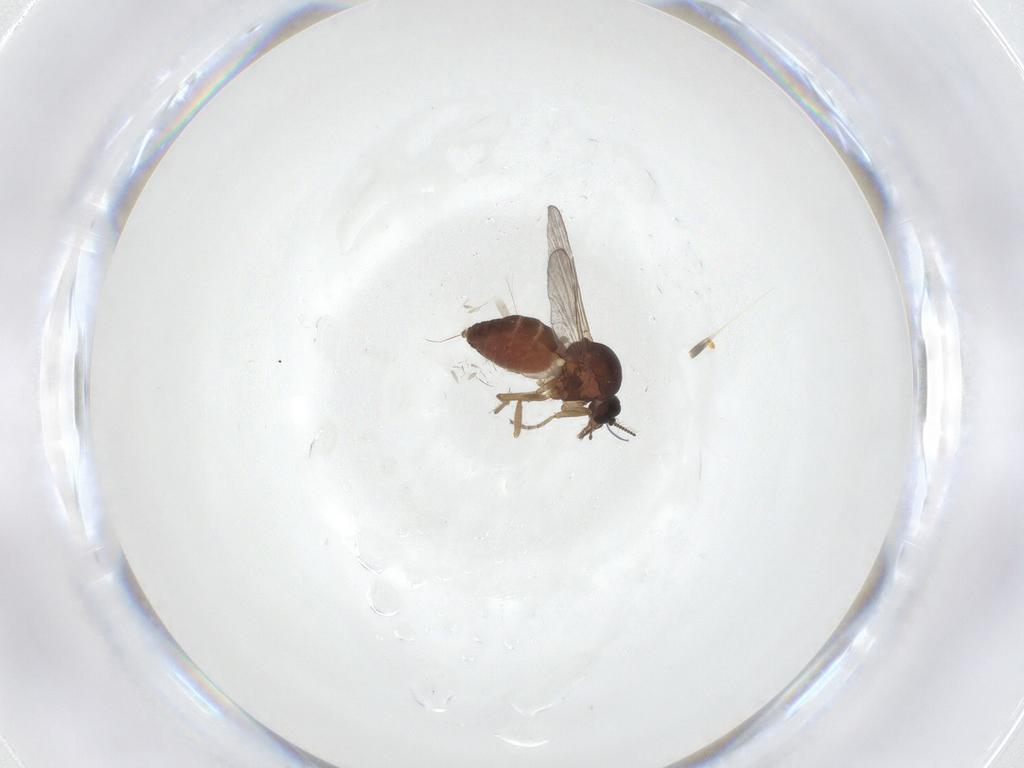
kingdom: Animalia
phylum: Arthropoda
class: Insecta
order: Diptera
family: Ceratopogonidae
